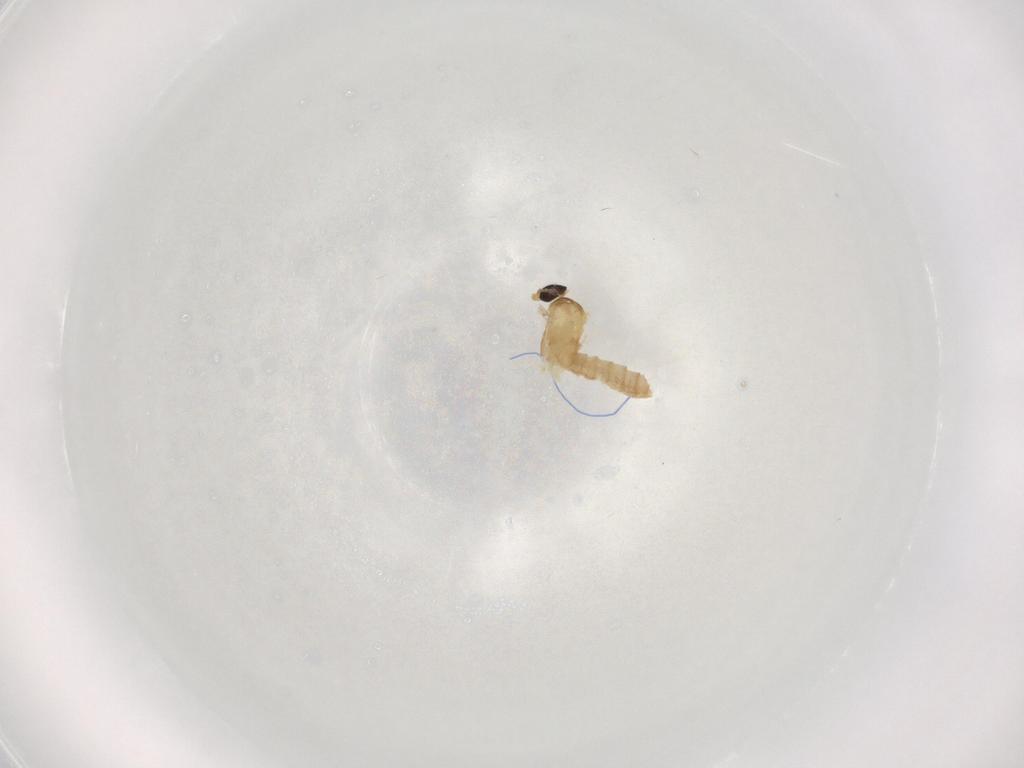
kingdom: Animalia
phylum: Arthropoda
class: Insecta
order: Diptera
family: Cecidomyiidae
